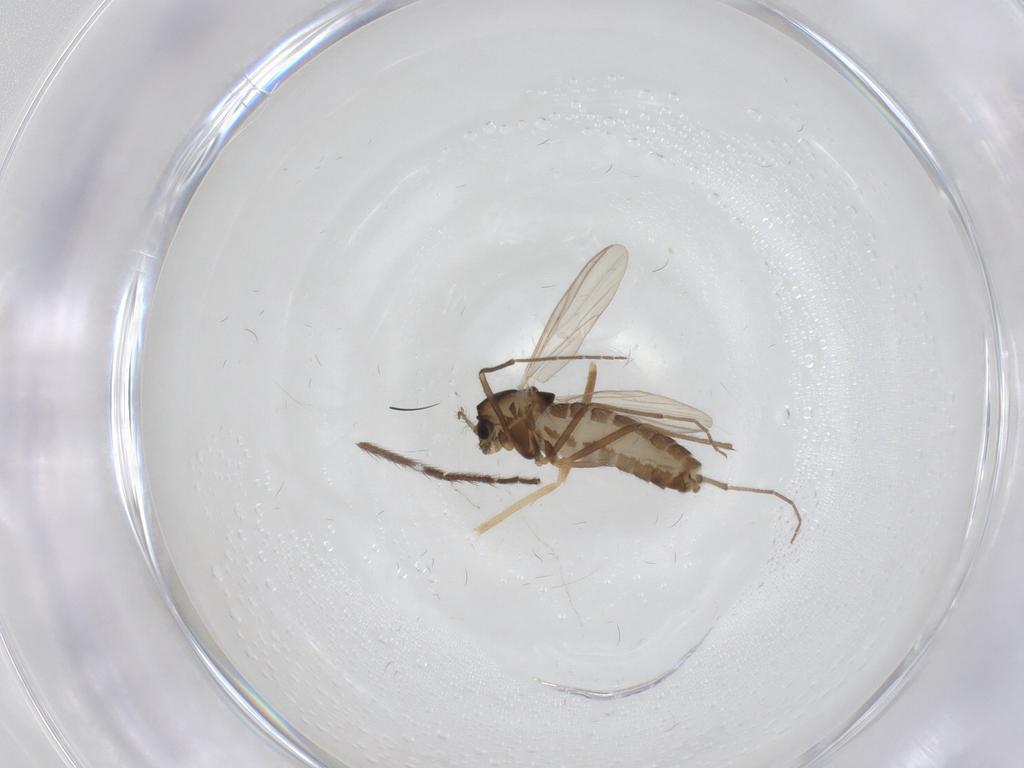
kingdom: Animalia
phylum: Arthropoda
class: Insecta
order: Diptera
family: Chironomidae
